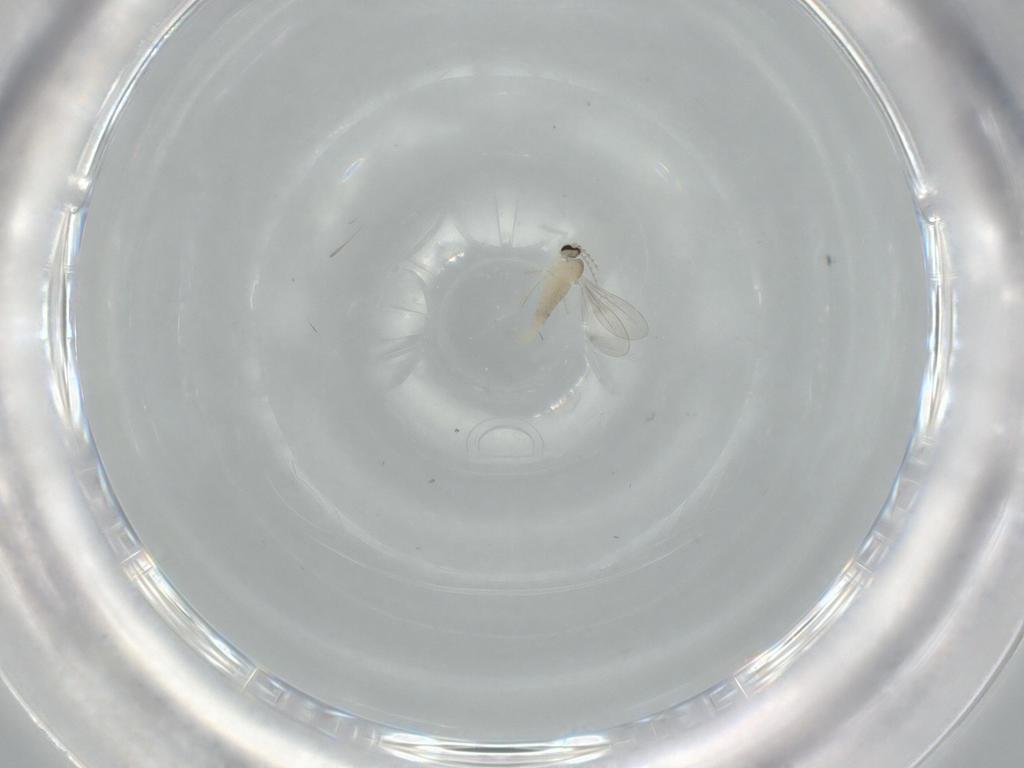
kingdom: Animalia
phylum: Arthropoda
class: Insecta
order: Diptera
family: Cecidomyiidae
